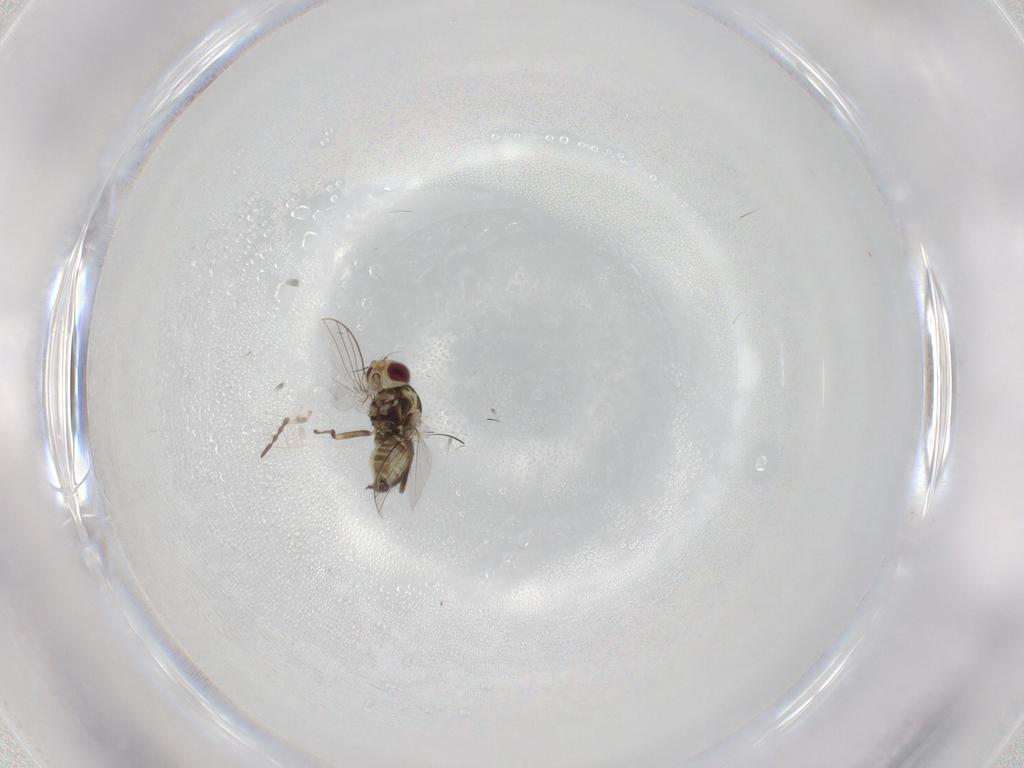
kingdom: Animalia
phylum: Arthropoda
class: Insecta
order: Diptera
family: Agromyzidae
